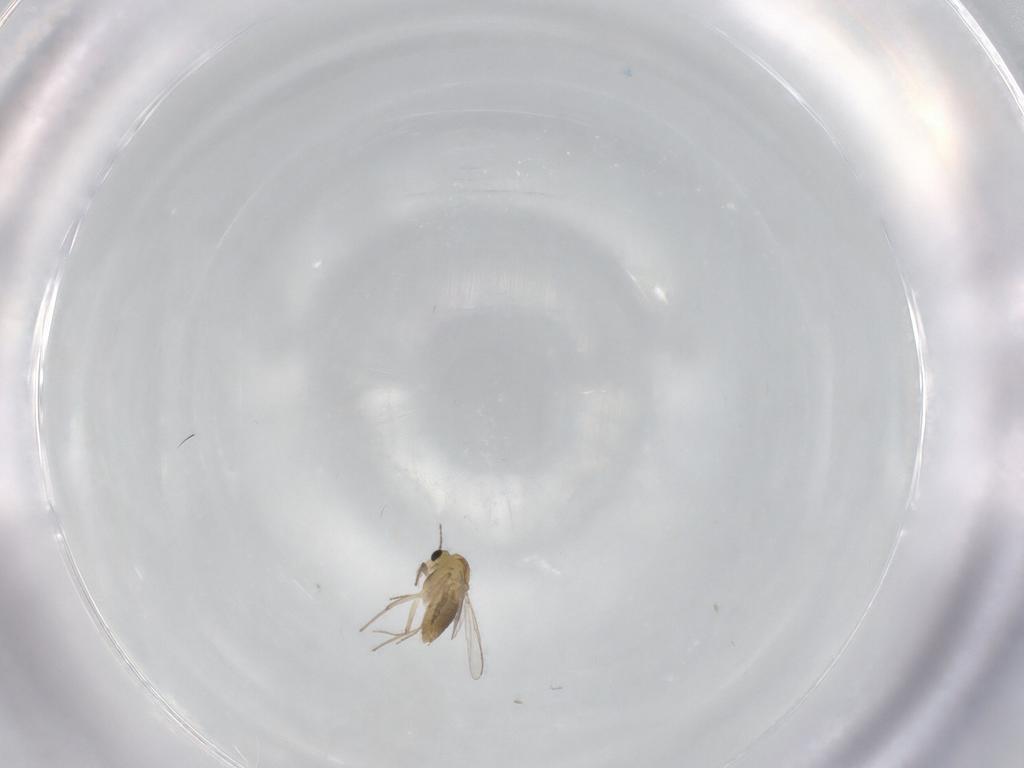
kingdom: Animalia
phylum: Arthropoda
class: Insecta
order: Diptera
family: Chironomidae
